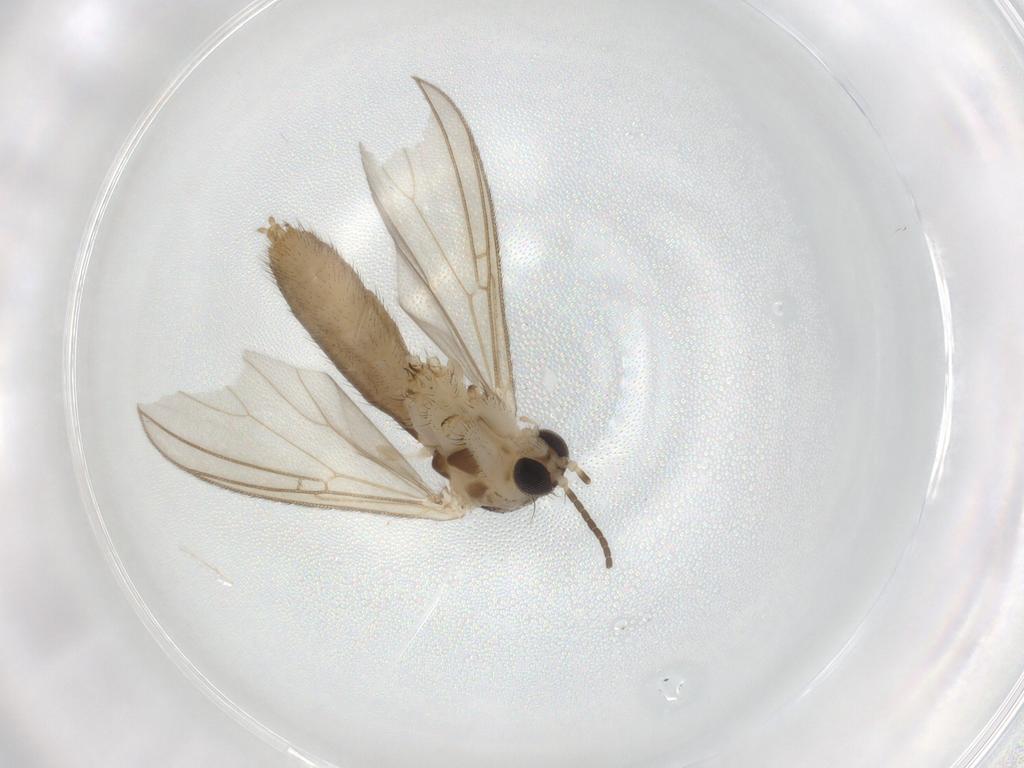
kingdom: Animalia
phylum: Arthropoda
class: Insecta
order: Diptera
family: Mycetophilidae
